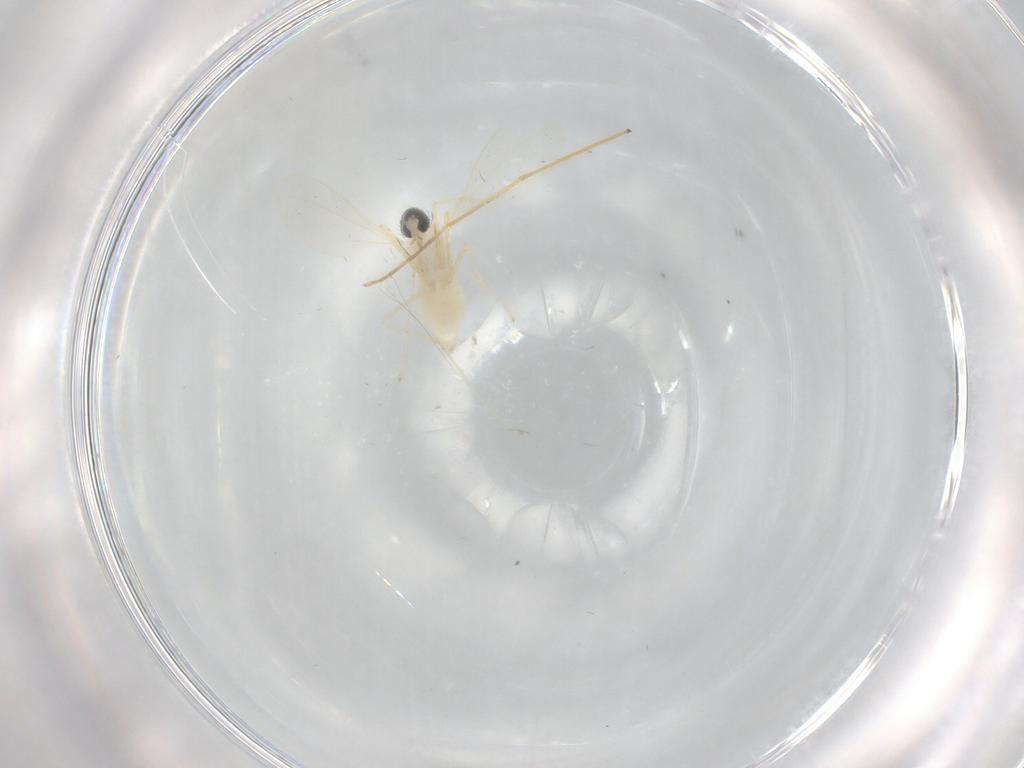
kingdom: Animalia
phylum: Arthropoda
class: Insecta
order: Diptera
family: Cecidomyiidae
